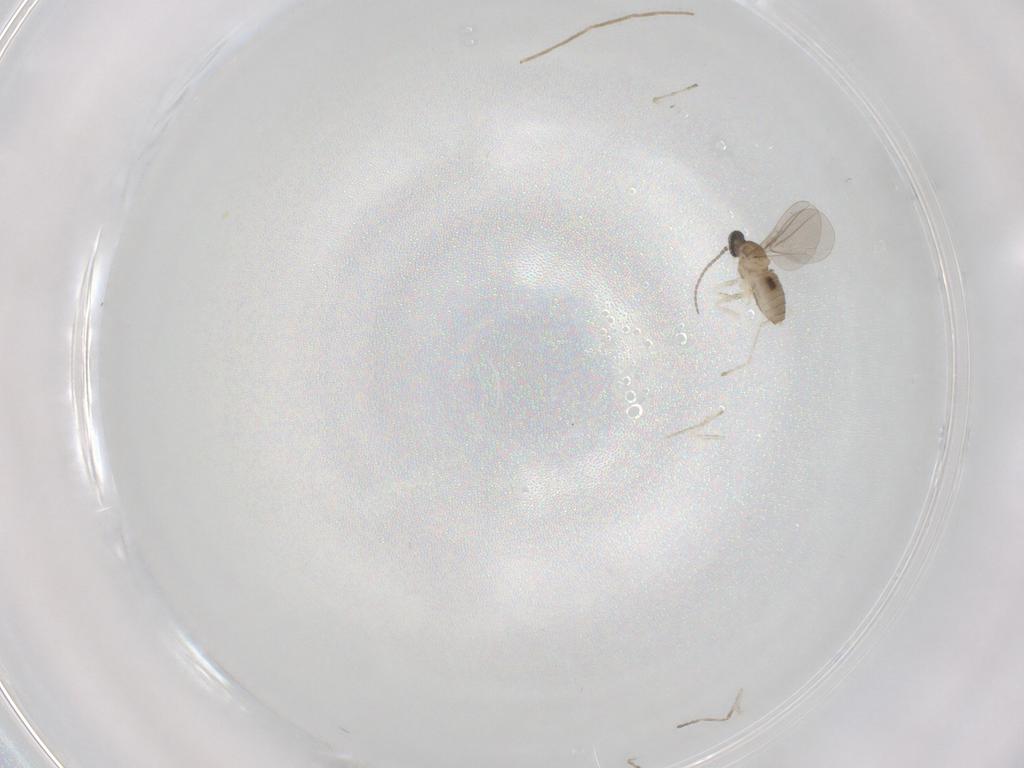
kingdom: Animalia
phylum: Arthropoda
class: Insecta
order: Diptera
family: Cecidomyiidae
